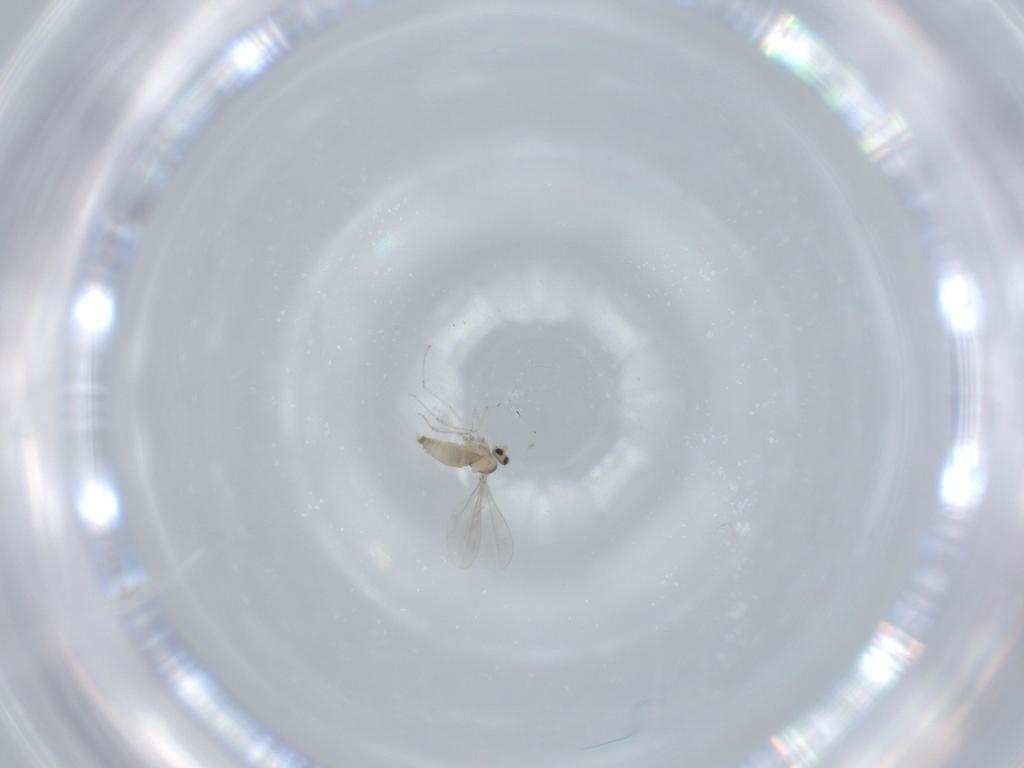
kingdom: Animalia
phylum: Arthropoda
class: Insecta
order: Diptera
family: Cecidomyiidae
